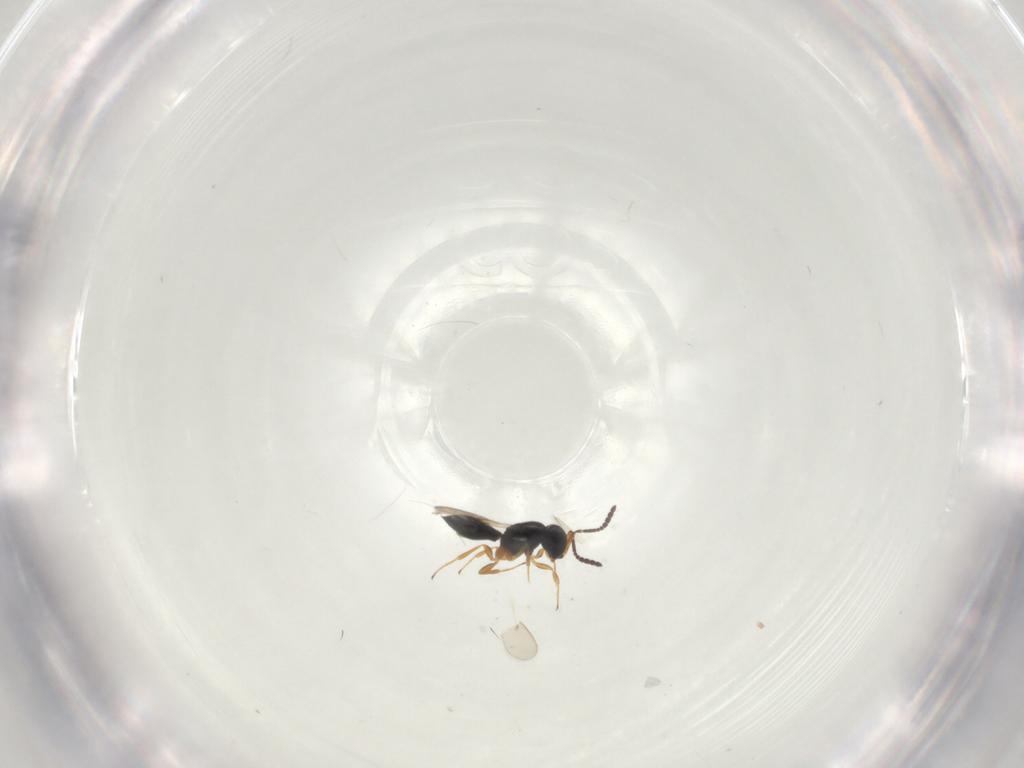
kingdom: Animalia
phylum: Arthropoda
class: Insecta
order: Hymenoptera
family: Scelionidae
